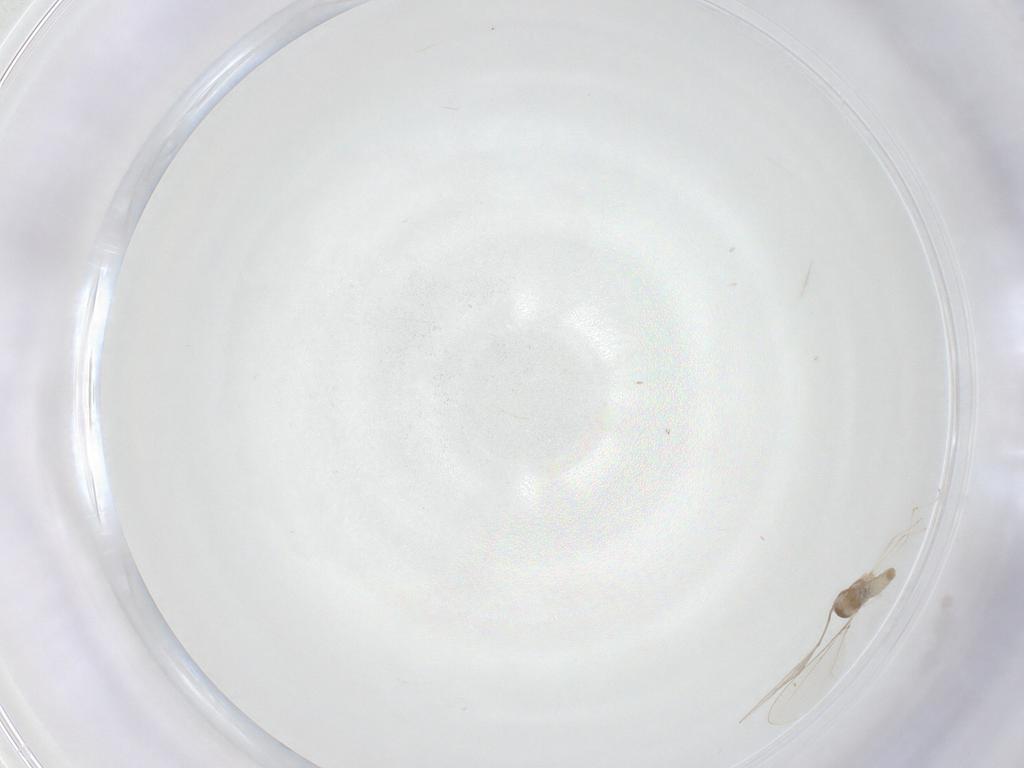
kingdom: Animalia
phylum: Arthropoda
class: Insecta
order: Diptera
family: Cecidomyiidae
